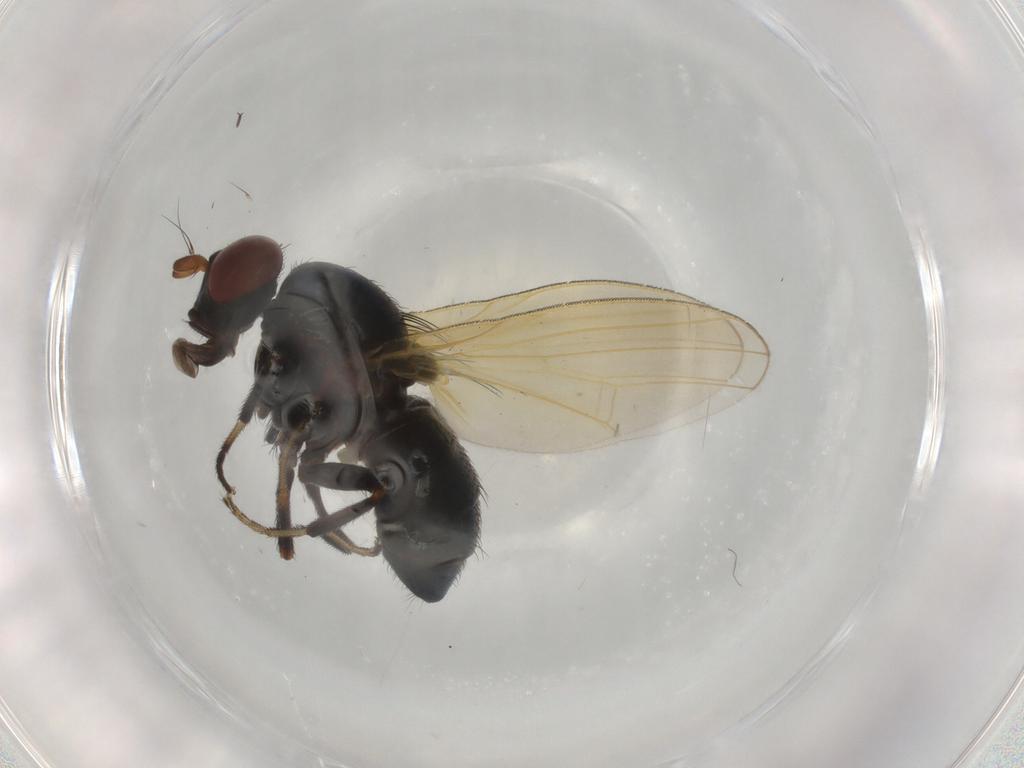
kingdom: Animalia
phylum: Arthropoda
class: Insecta
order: Diptera
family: Lauxaniidae
